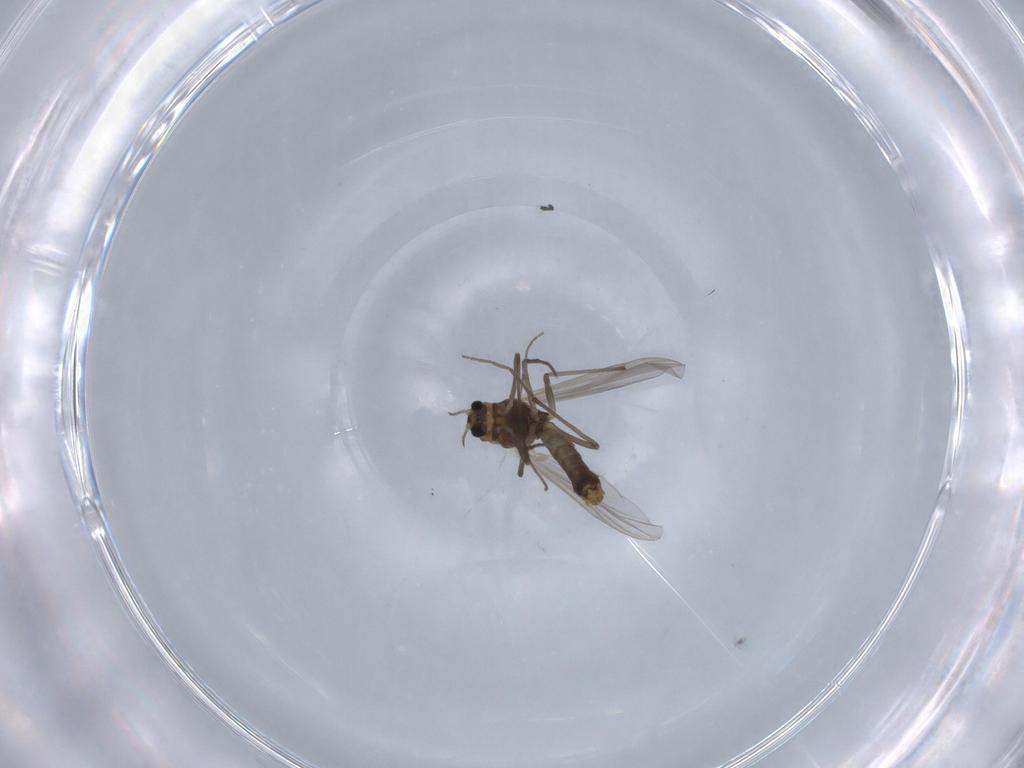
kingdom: Animalia
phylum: Arthropoda
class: Insecta
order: Diptera
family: Chironomidae
